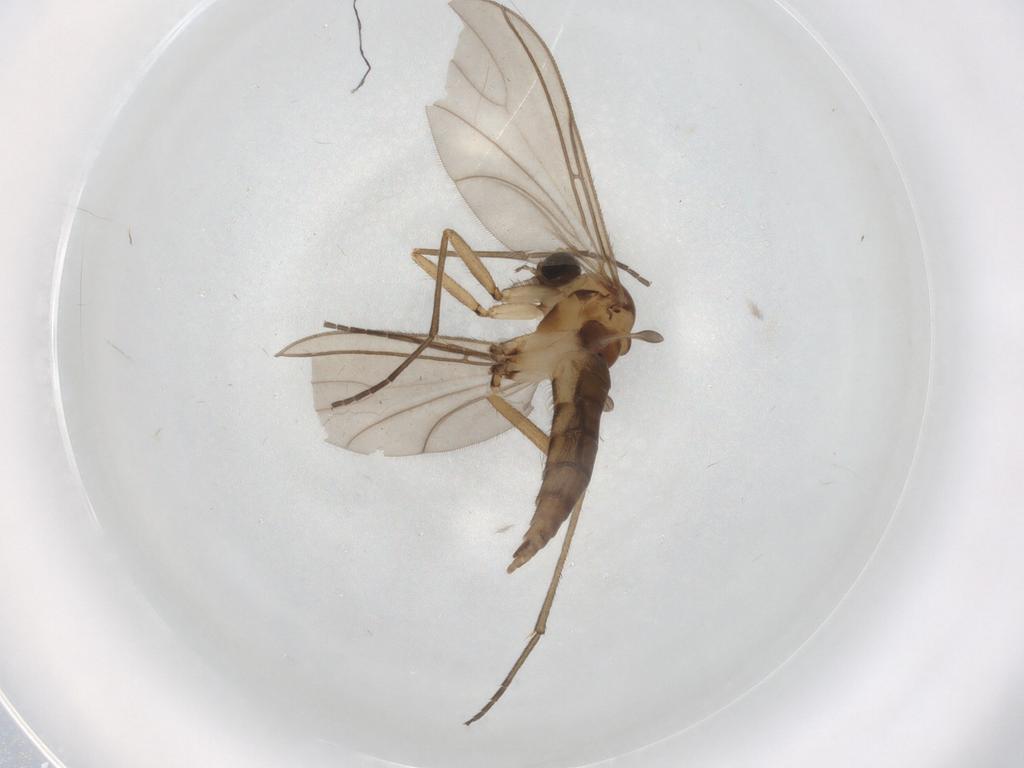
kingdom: Animalia
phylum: Arthropoda
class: Insecta
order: Diptera
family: Sciaridae
